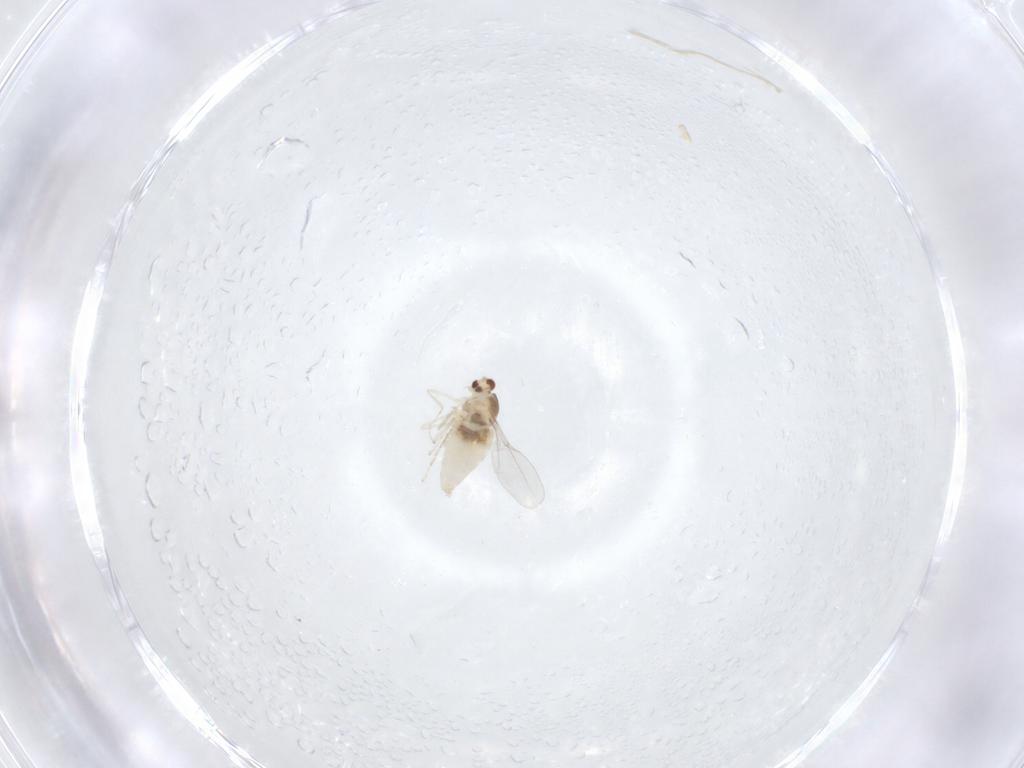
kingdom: Animalia
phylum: Arthropoda
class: Insecta
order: Diptera
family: Cecidomyiidae
